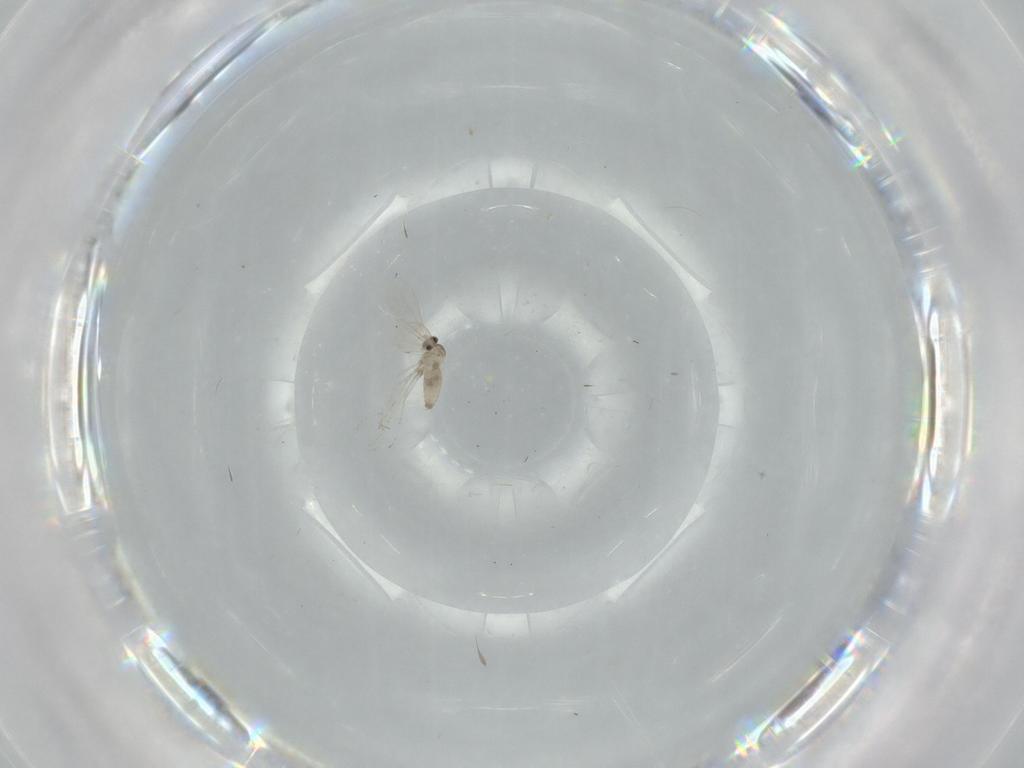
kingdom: Animalia
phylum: Arthropoda
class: Insecta
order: Diptera
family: Cecidomyiidae
